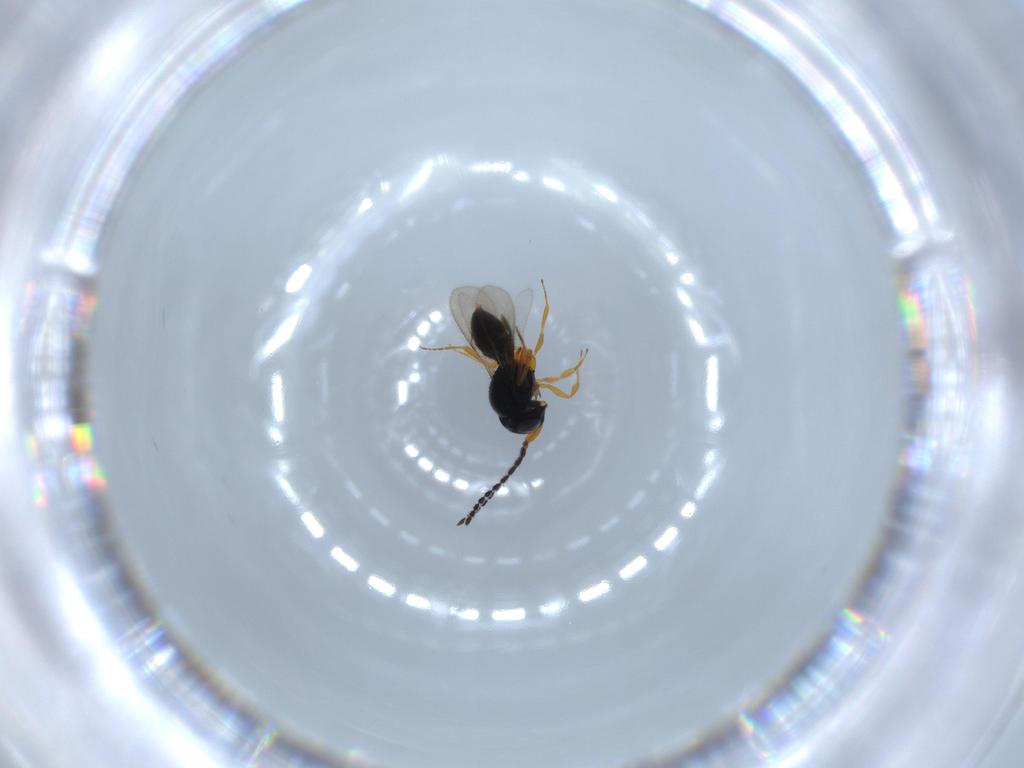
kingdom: Animalia
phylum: Arthropoda
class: Insecta
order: Hymenoptera
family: Scelionidae
